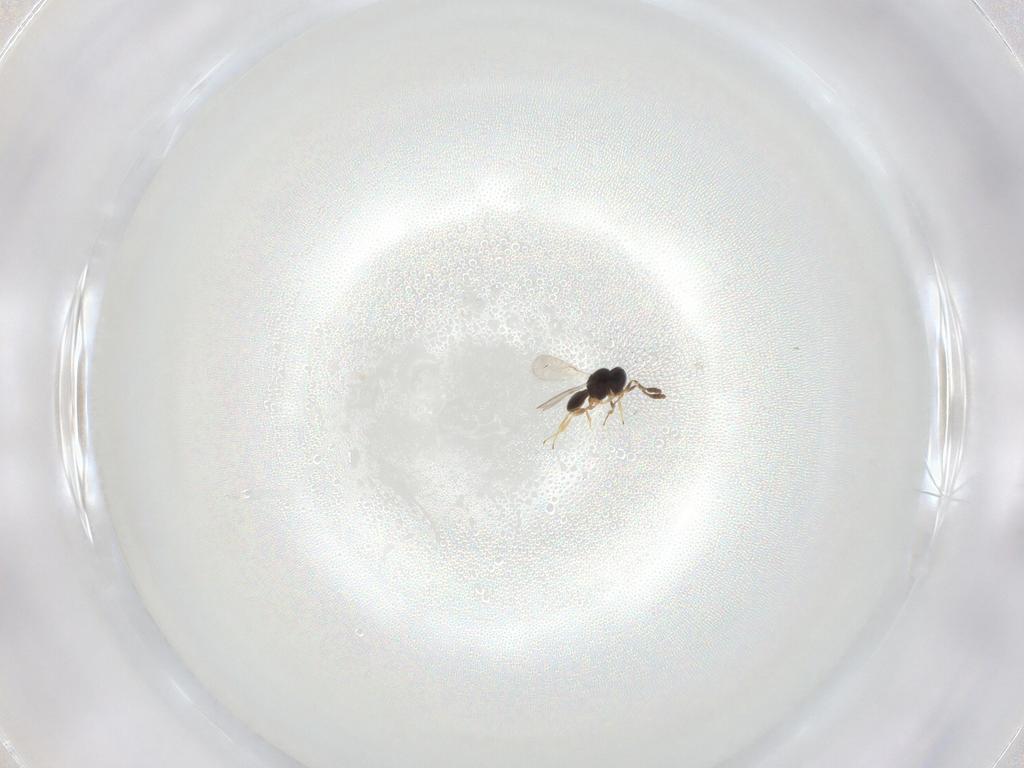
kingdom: Animalia
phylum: Arthropoda
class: Insecta
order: Hymenoptera
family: Scelionidae
